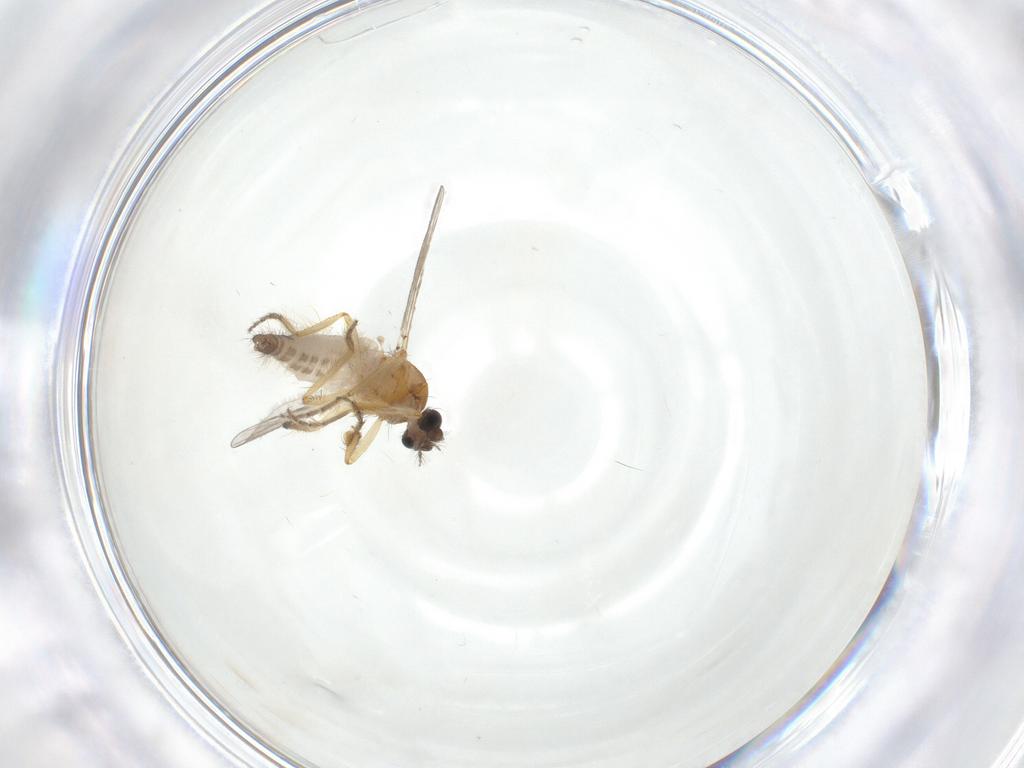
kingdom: Animalia
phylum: Arthropoda
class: Insecta
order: Diptera
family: Ceratopogonidae
